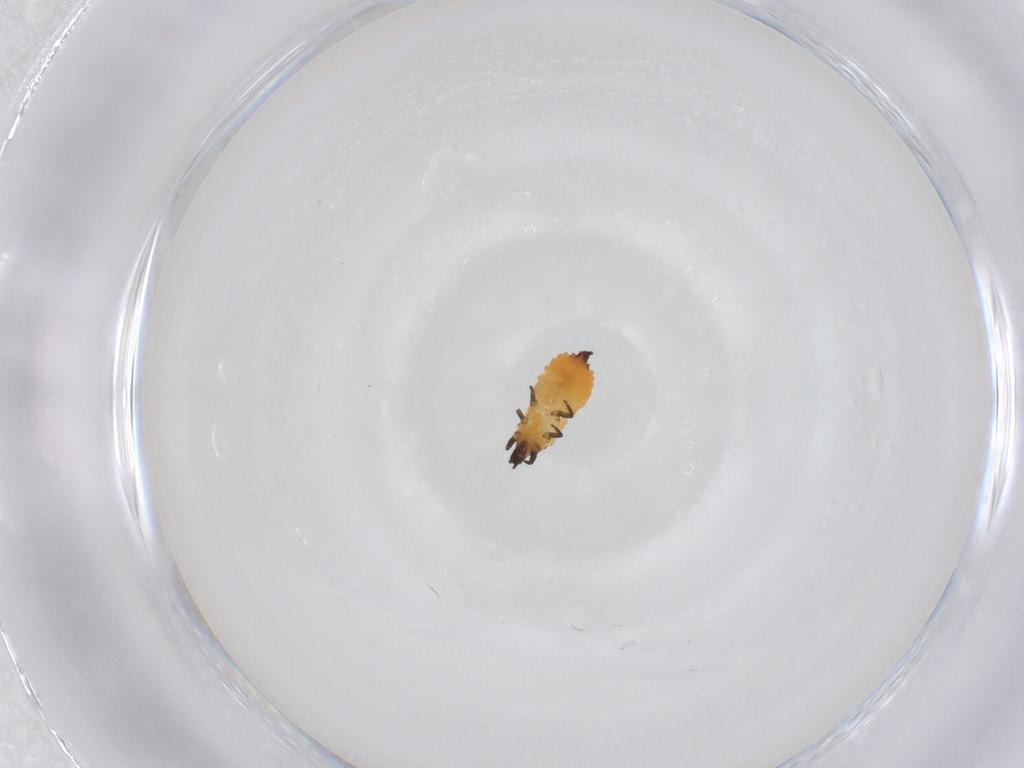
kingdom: Animalia
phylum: Arthropoda
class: Insecta
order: Thysanoptera
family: Phlaeothripidae
